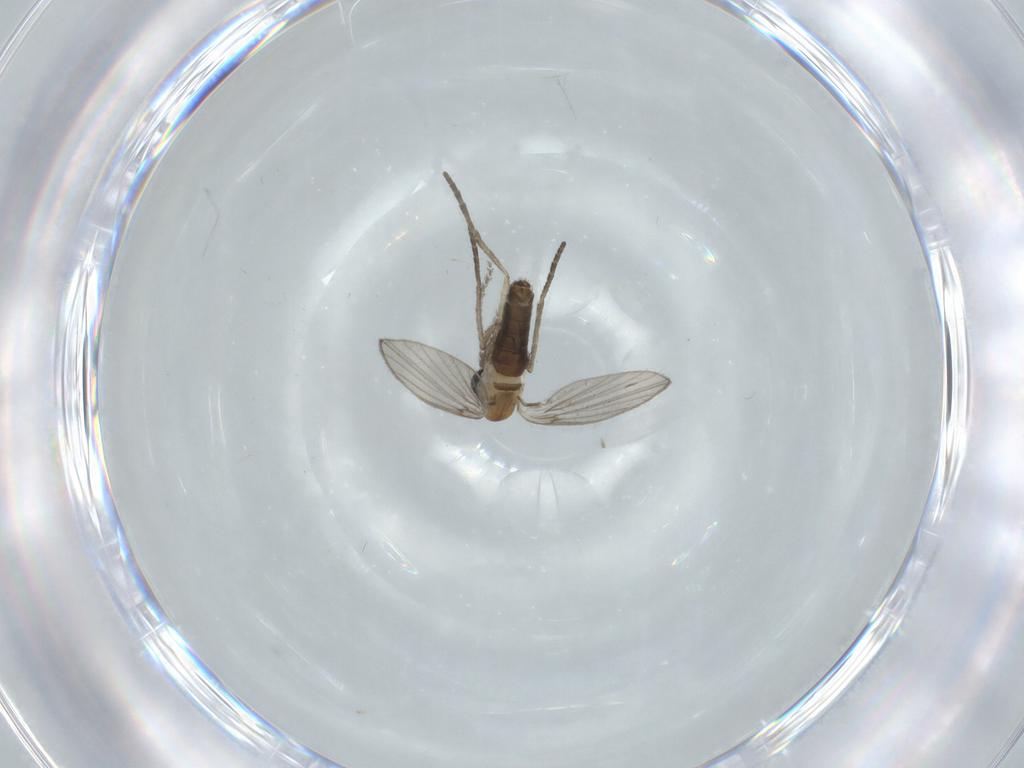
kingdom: Animalia
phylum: Arthropoda
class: Insecta
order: Diptera
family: Psychodidae
